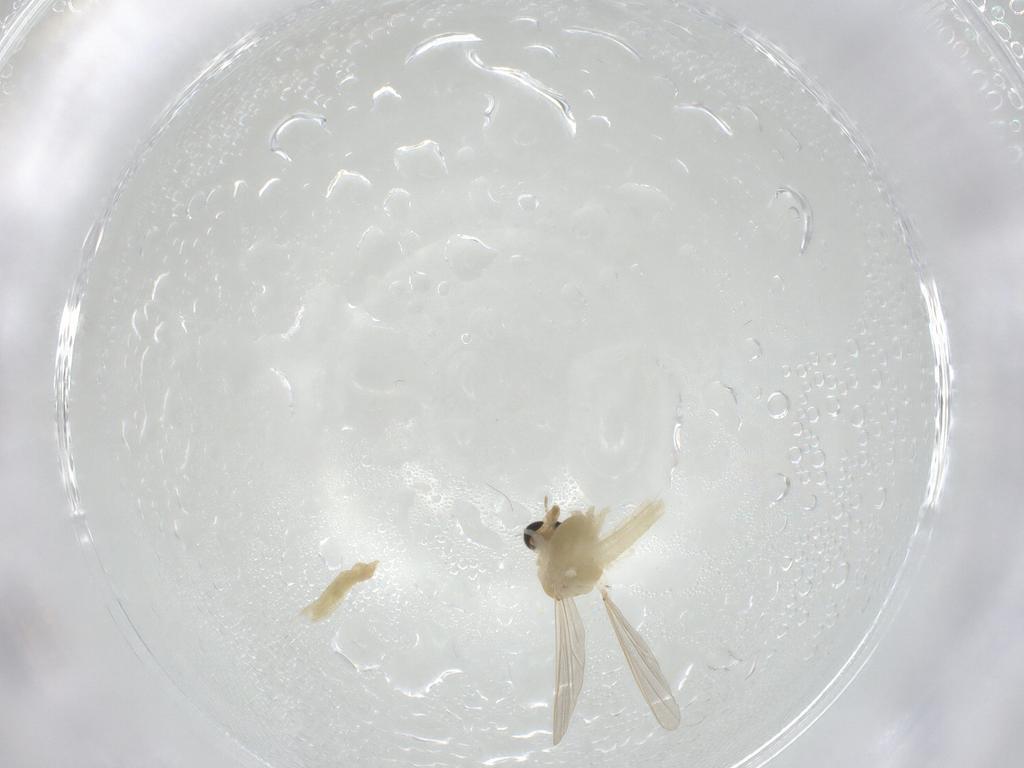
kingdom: Animalia
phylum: Arthropoda
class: Insecta
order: Diptera
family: Chironomidae
